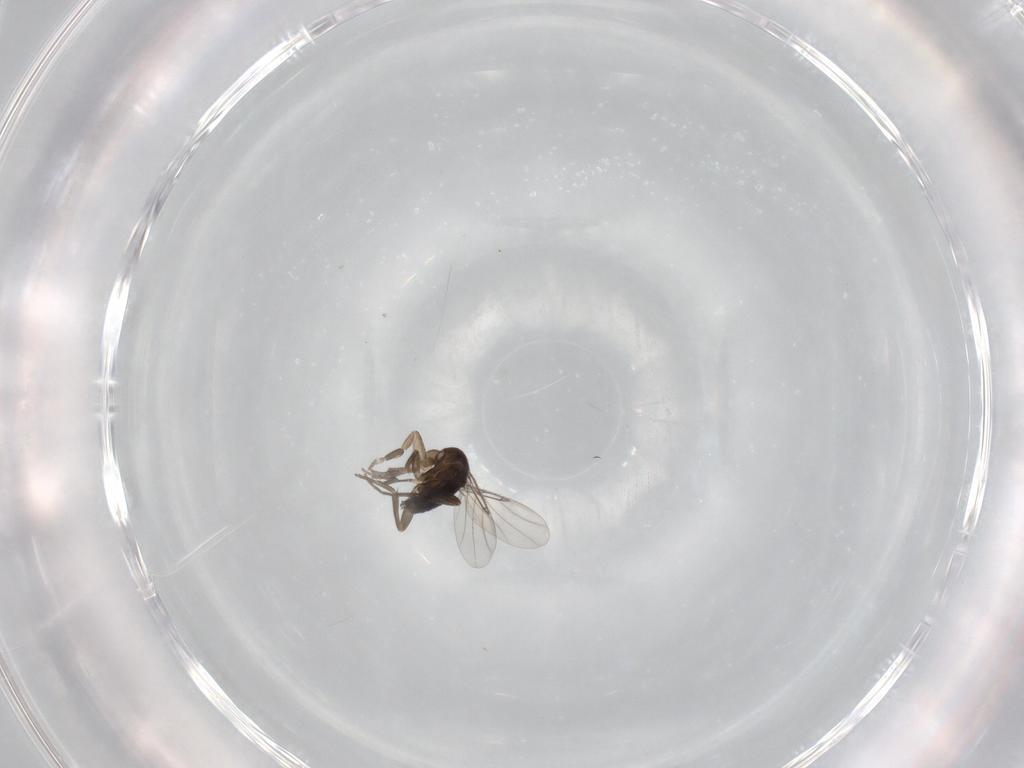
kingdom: Animalia
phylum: Arthropoda
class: Insecta
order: Diptera
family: Phoridae
